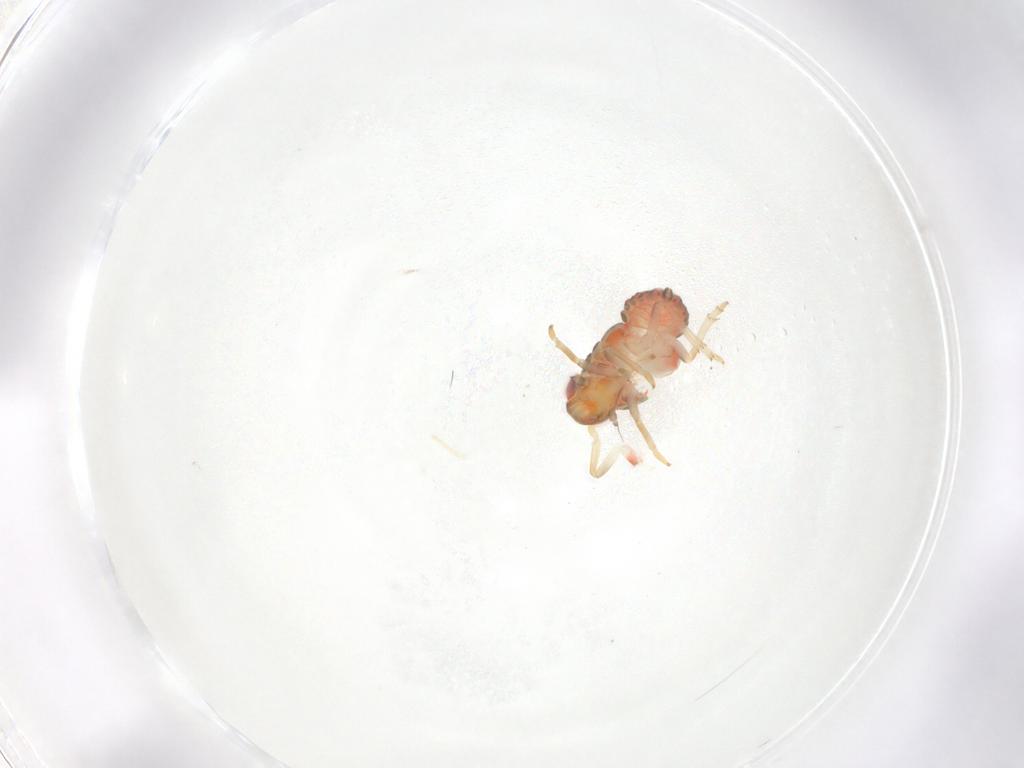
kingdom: Animalia
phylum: Arthropoda
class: Insecta
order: Hemiptera
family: Issidae
